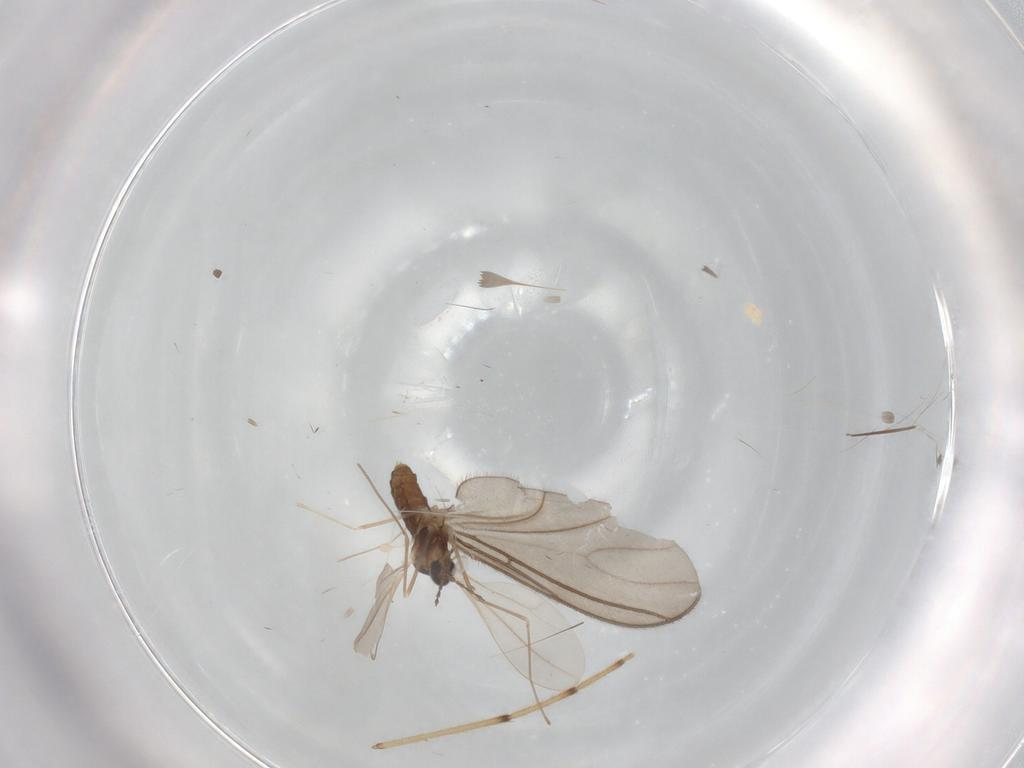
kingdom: Animalia
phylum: Arthropoda
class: Insecta
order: Diptera
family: Sciaridae
